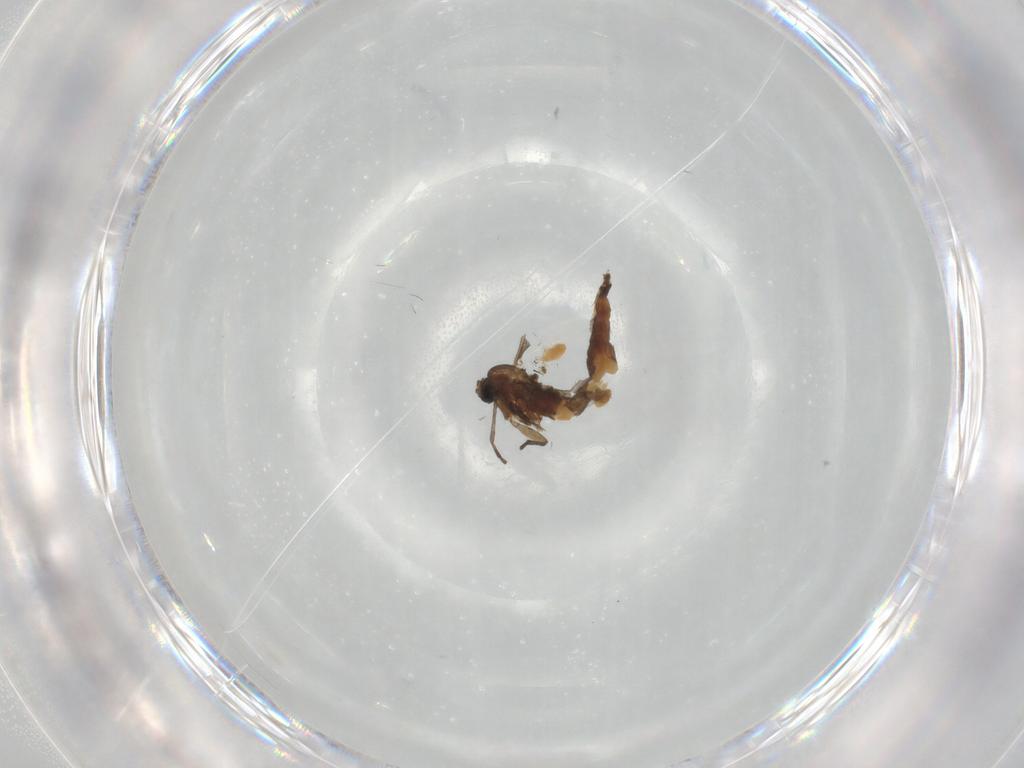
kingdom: Animalia
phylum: Arthropoda
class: Insecta
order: Diptera
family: Sciaridae
